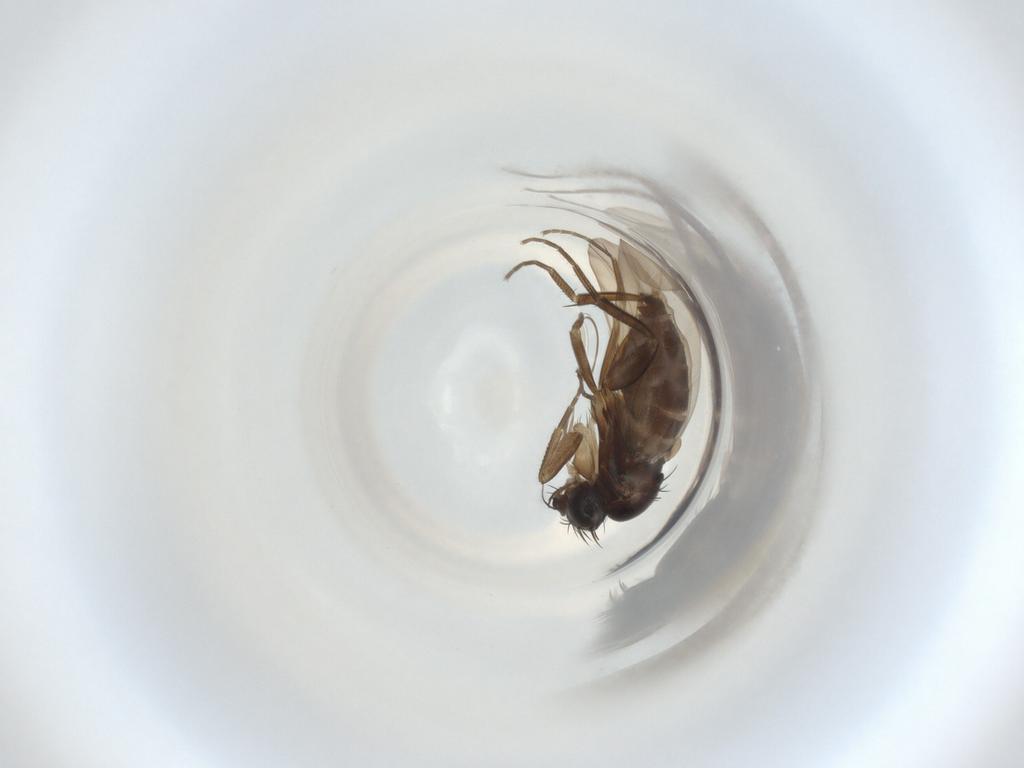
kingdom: Animalia
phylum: Arthropoda
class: Insecta
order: Diptera
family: Phoridae
